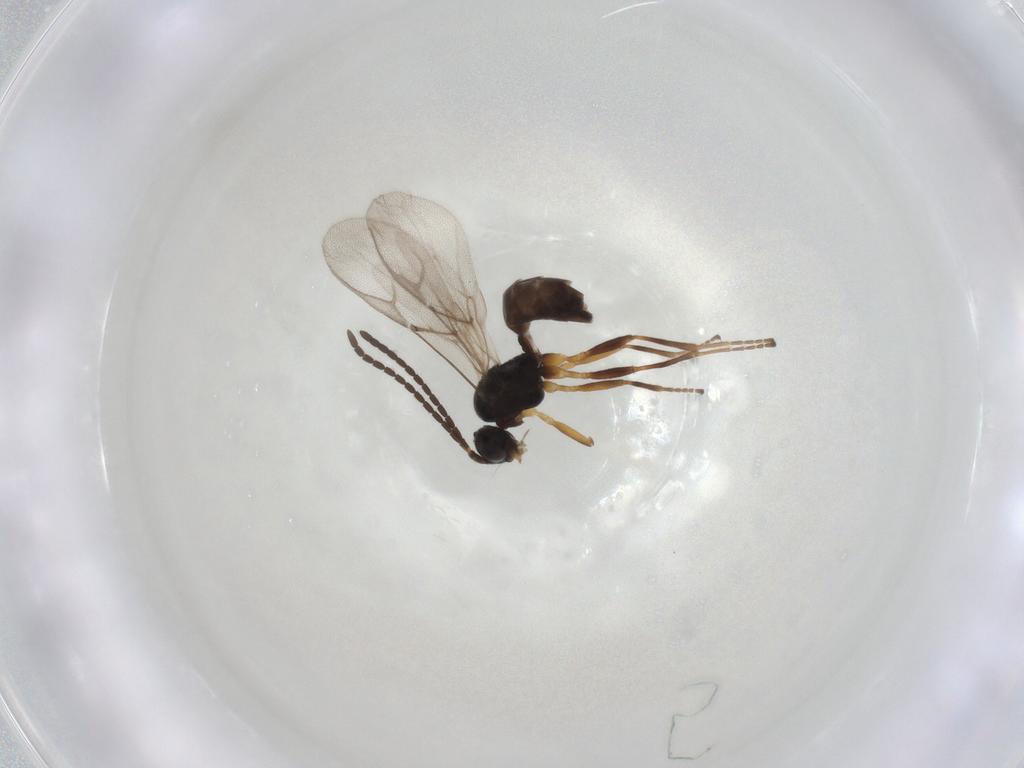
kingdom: Animalia
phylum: Arthropoda
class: Insecta
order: Hymenoptera
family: Braconidae
